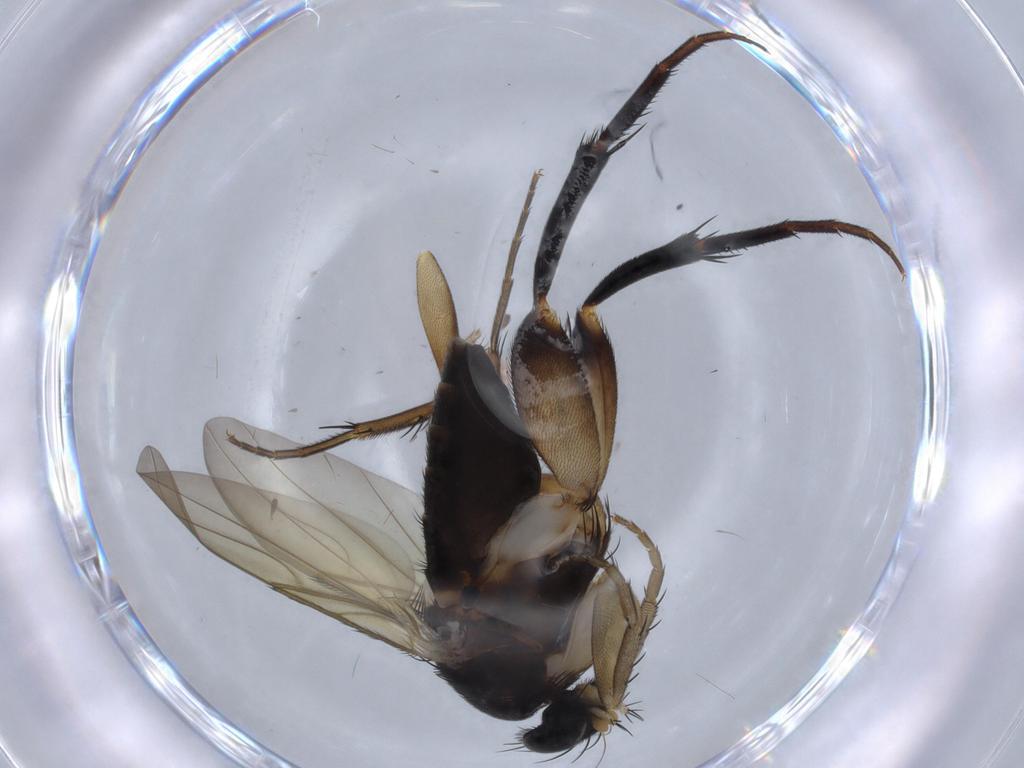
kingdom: Animalia
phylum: Arthropoda
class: Insecta
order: Diptera
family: Phoridae
